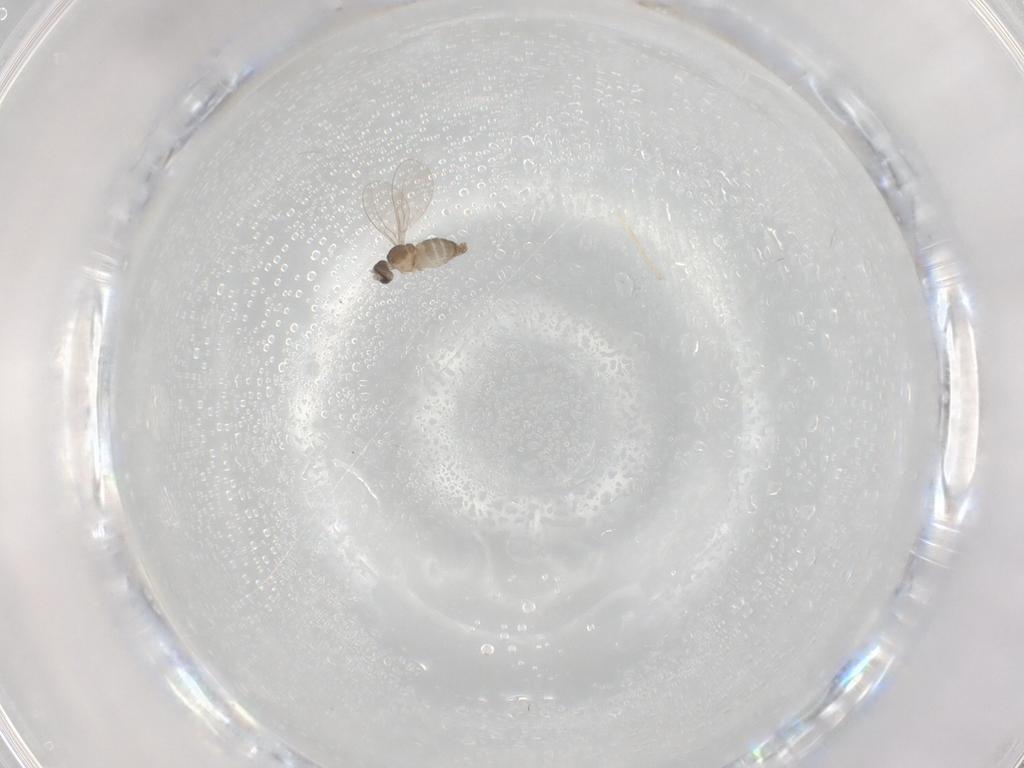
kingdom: Animalia
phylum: Arthropoda
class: Insecta
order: Diptera
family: Cecidomyiidae
